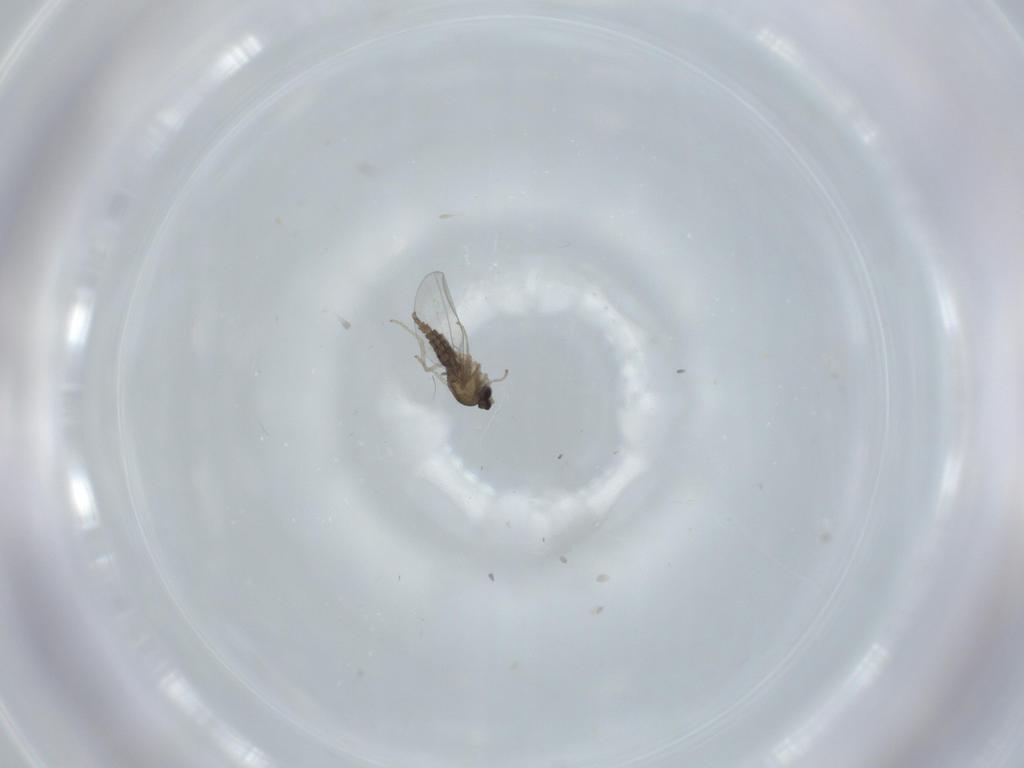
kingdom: Animalia
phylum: Arthropoda
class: Insecta
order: Diptera
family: Cecidomyiidae
